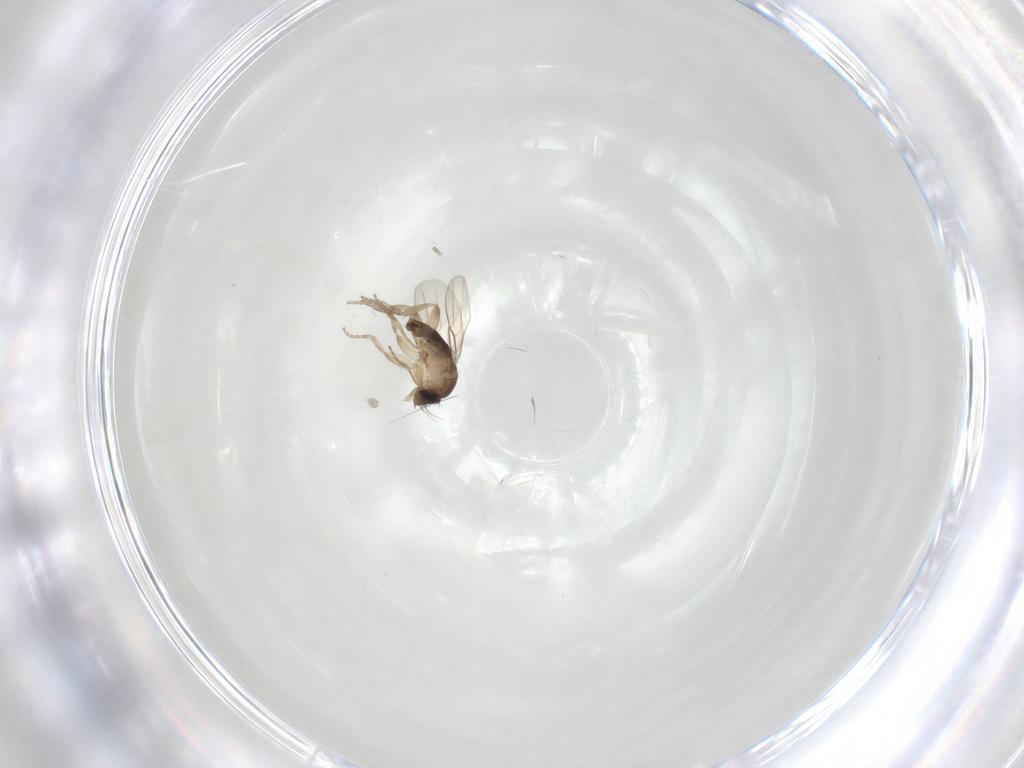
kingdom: Animalia
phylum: Arthropoda
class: Insecta
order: Diptera
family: Phoridae
